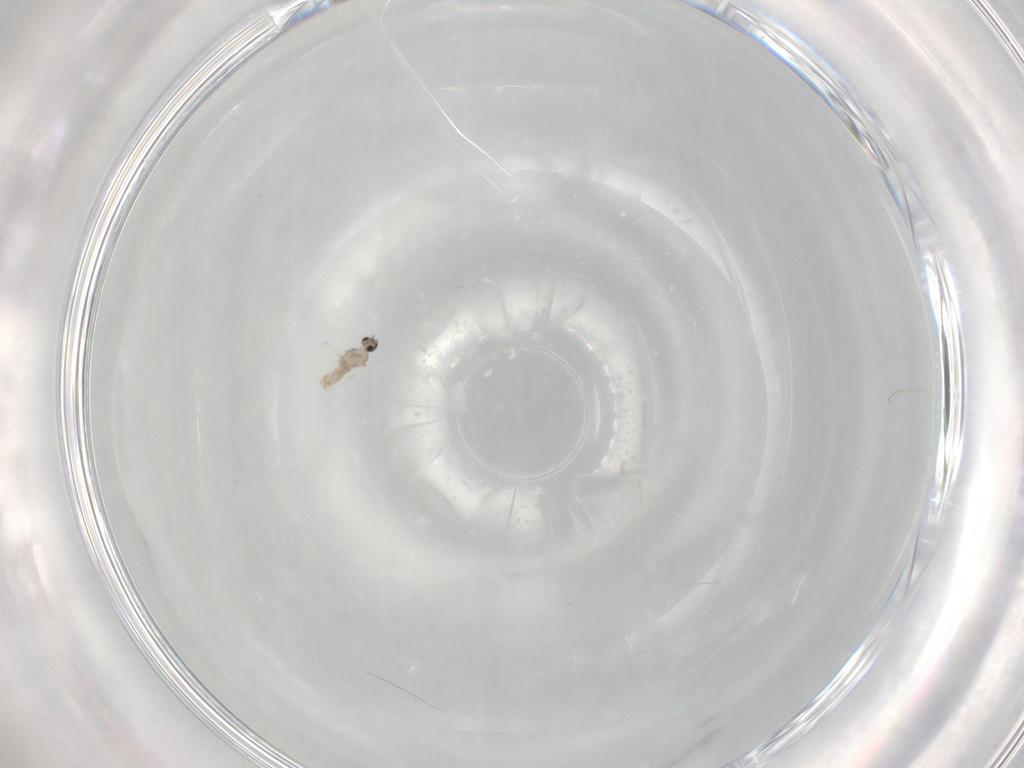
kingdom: Animalia
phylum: Arthropoda
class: Insecta
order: Diptera
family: Cecidomyiidae
